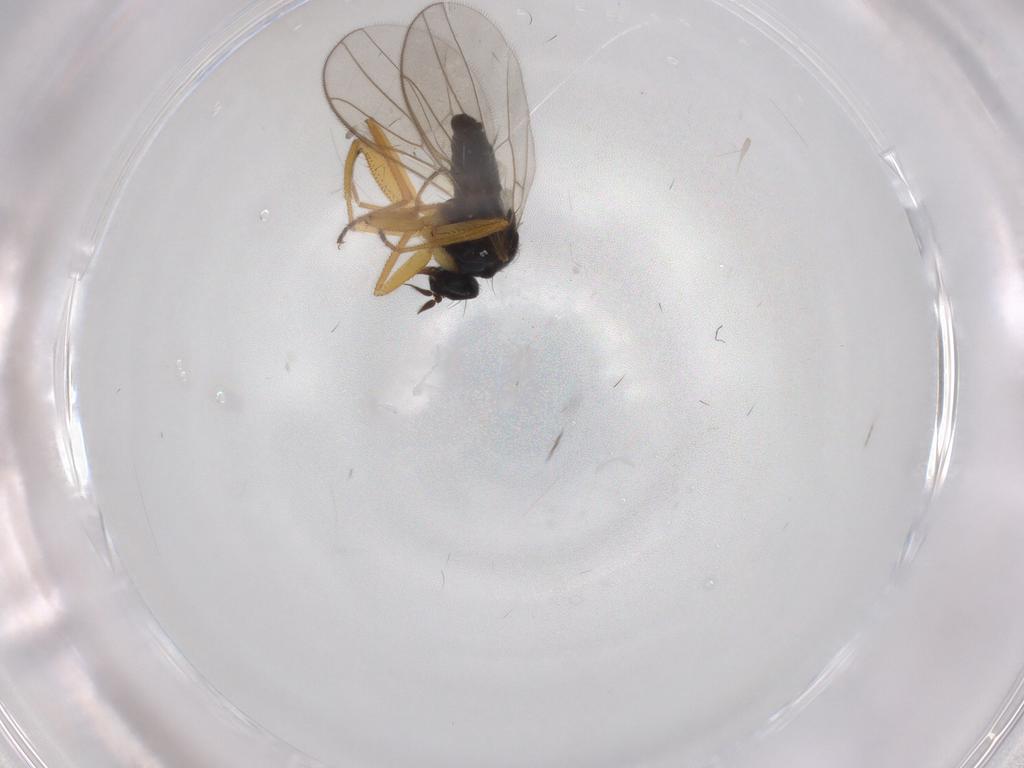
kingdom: Animalia
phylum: Arthropoda
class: Insecta
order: Diptera
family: Hybotidae
